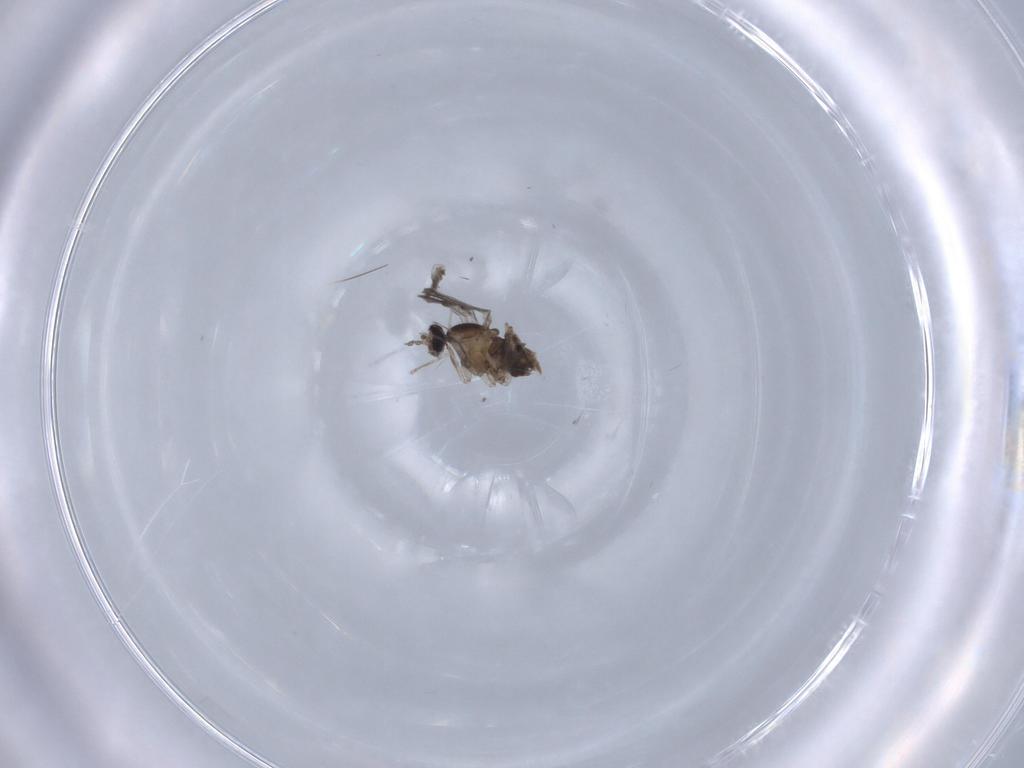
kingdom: Animalia
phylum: Arthropoda
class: Insecta
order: Diptera
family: Cecidomyiidae
